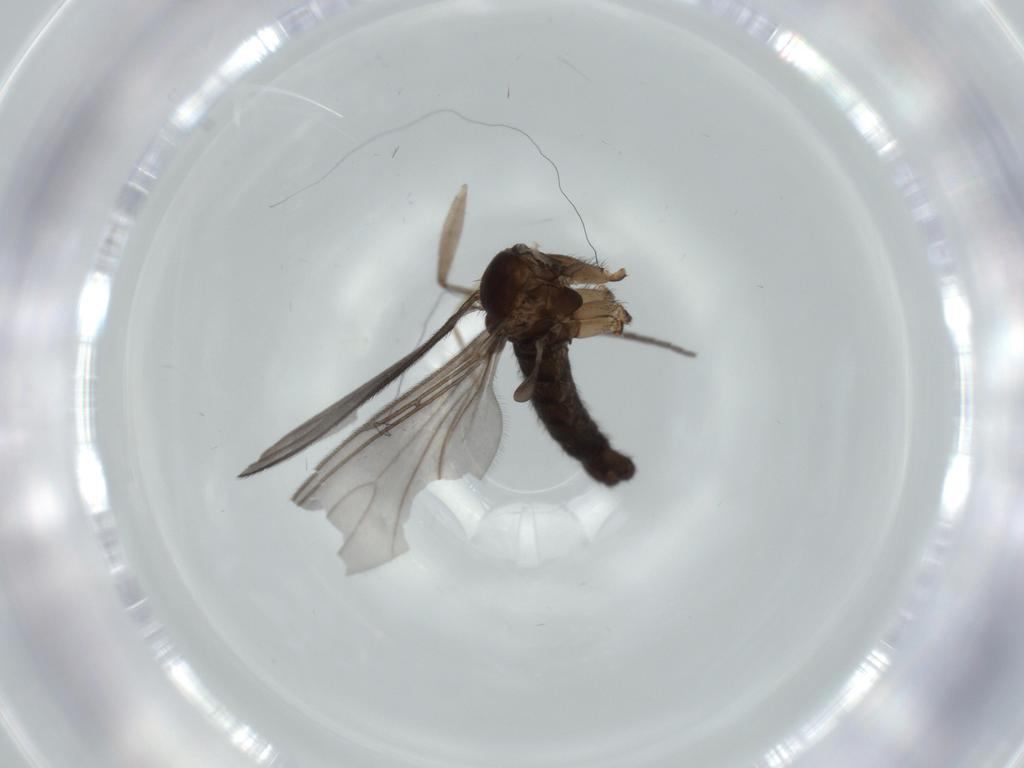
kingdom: Animalia
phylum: Arthropoda
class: Insecta
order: Diptera
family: Sciaridae
